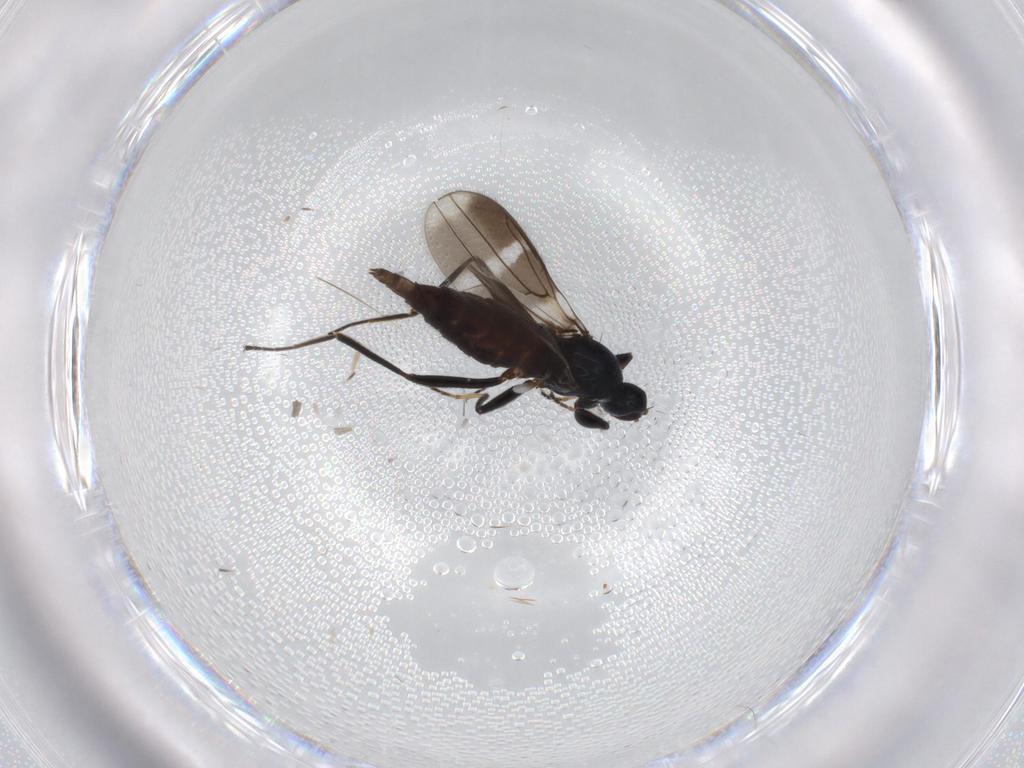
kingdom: Animalia
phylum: Arthropoda
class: Insecta
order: Diptera
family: Hybotidae
